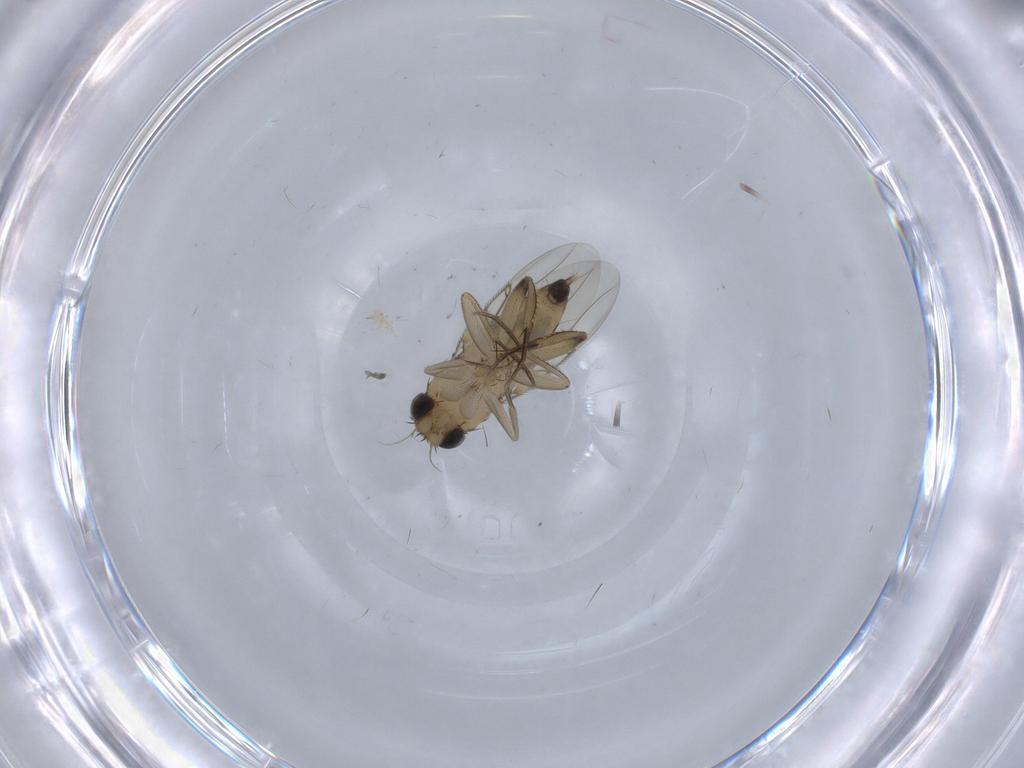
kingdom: Animalia
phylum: Arthropoda
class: Insecta
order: Diptera
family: Phoridae
